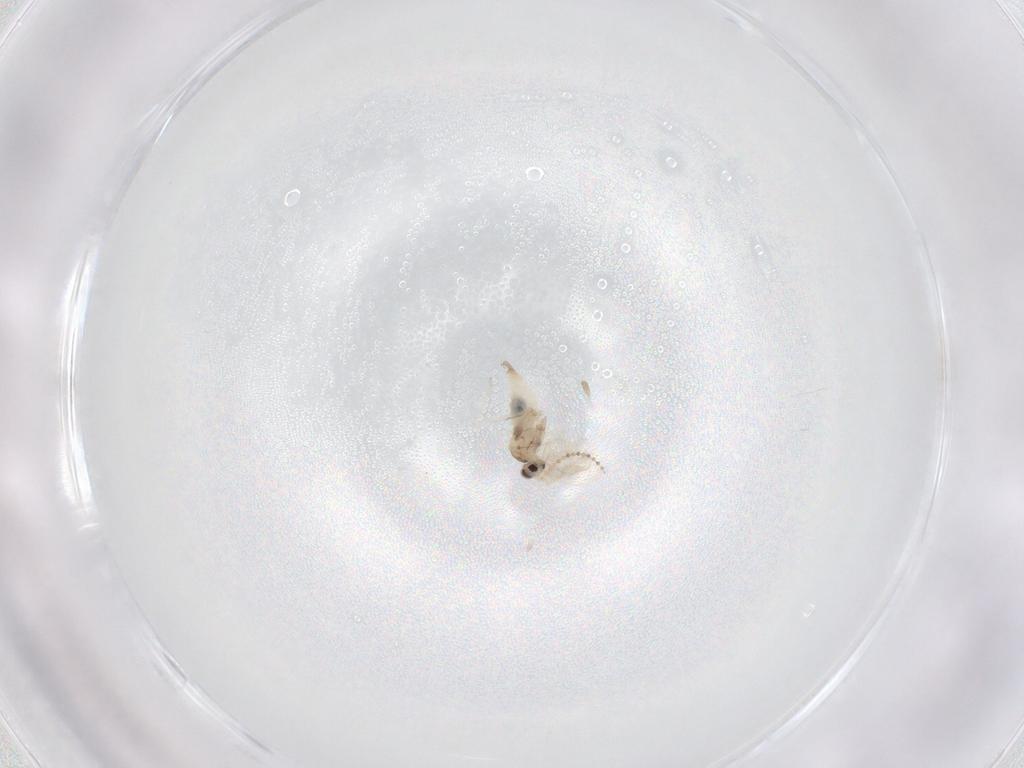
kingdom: Animalia
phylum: Arthropoda
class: Insecta
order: Diptera
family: Cecidomyiidae
